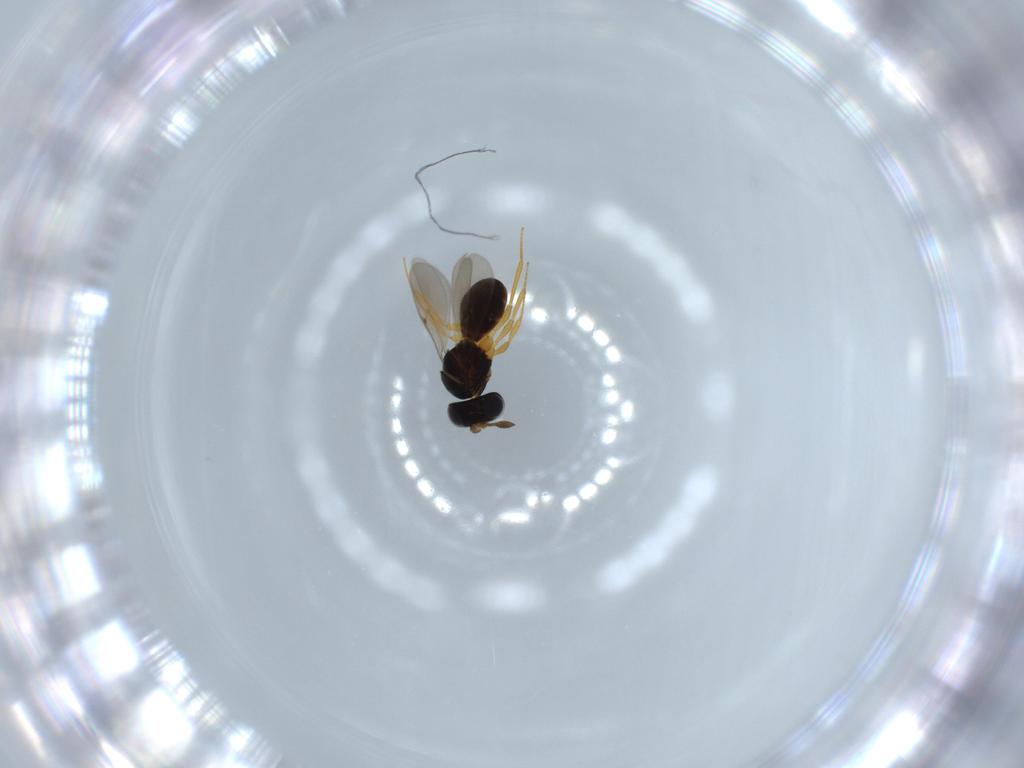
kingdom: Animalia
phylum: Arthropoda
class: Insecta
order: Hymenoptera
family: Scelionidae
